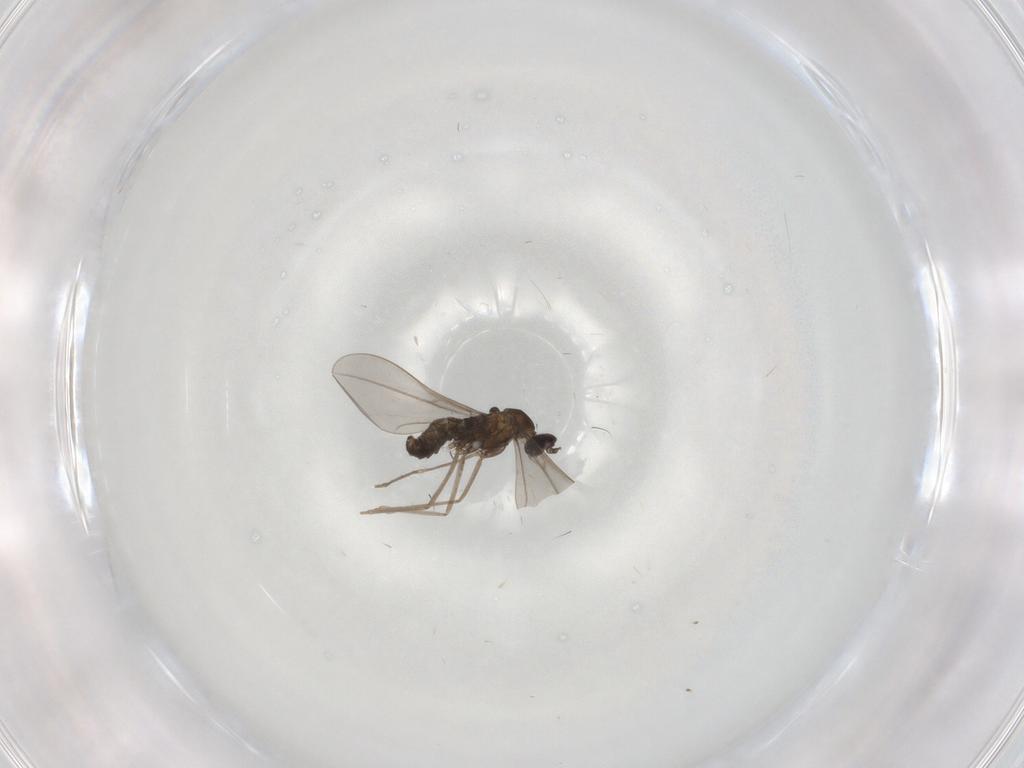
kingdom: Animalia
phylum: Arthropoda
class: Insecta
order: Diptera
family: Cecidomyiidae
